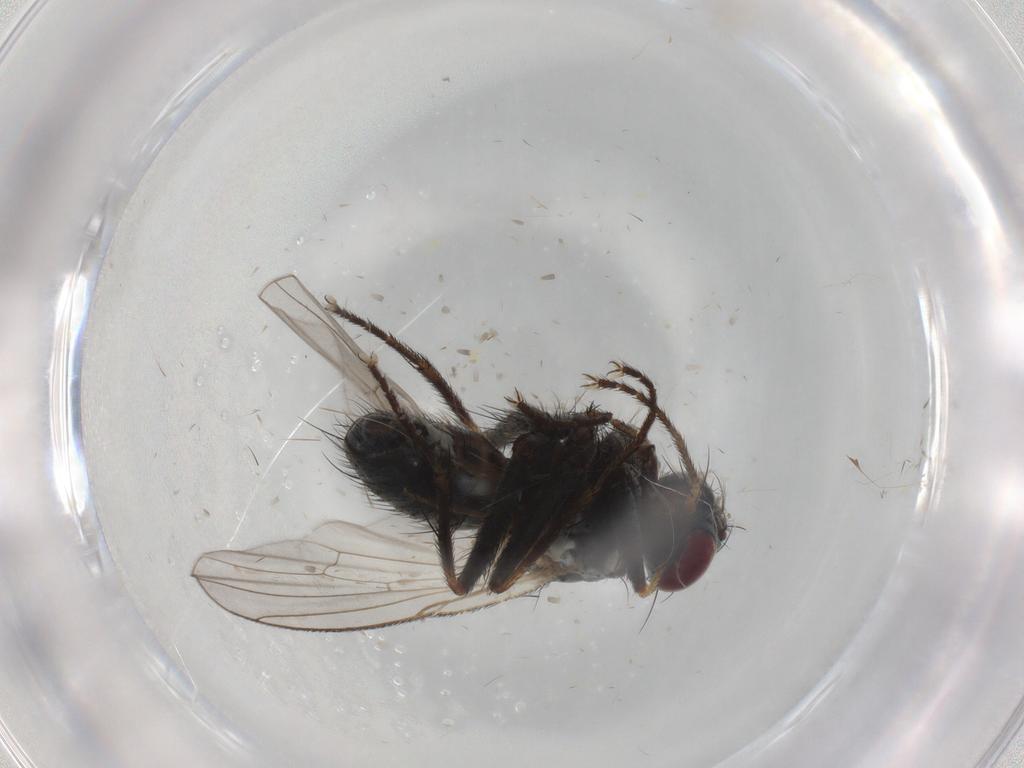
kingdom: Animalia
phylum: Arthropoda
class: Insecta
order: Diptera
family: Muscidae
